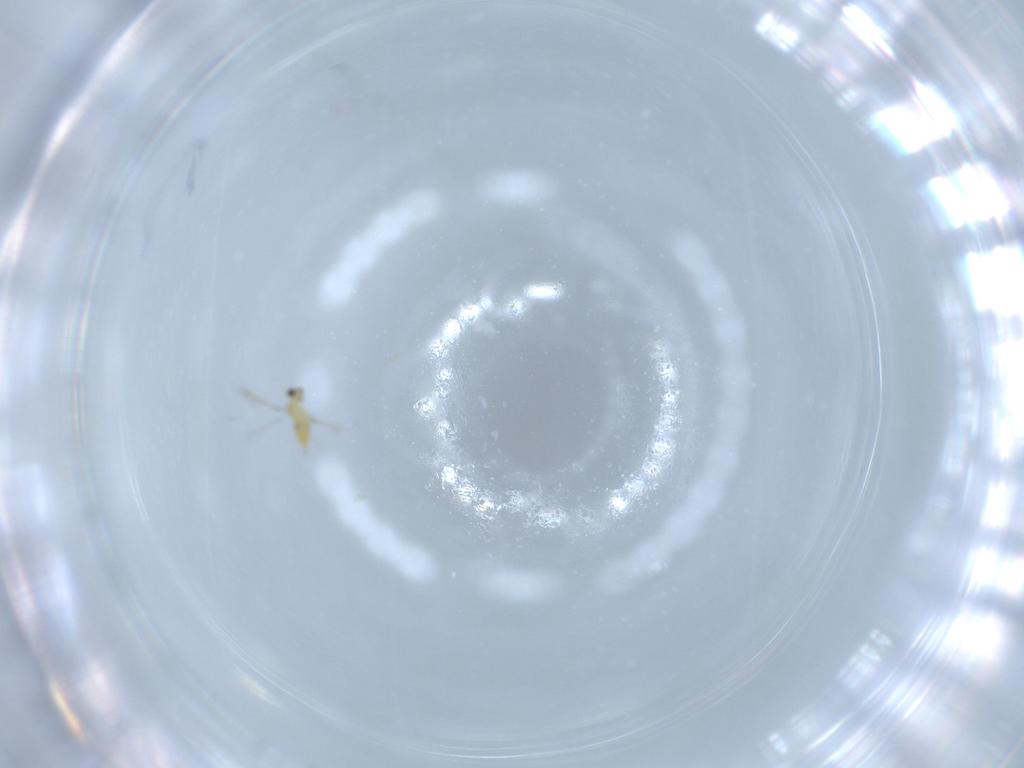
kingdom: Animalia
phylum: Arthropoda
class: Insecta
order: Hymenoptera
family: Mymaridae
